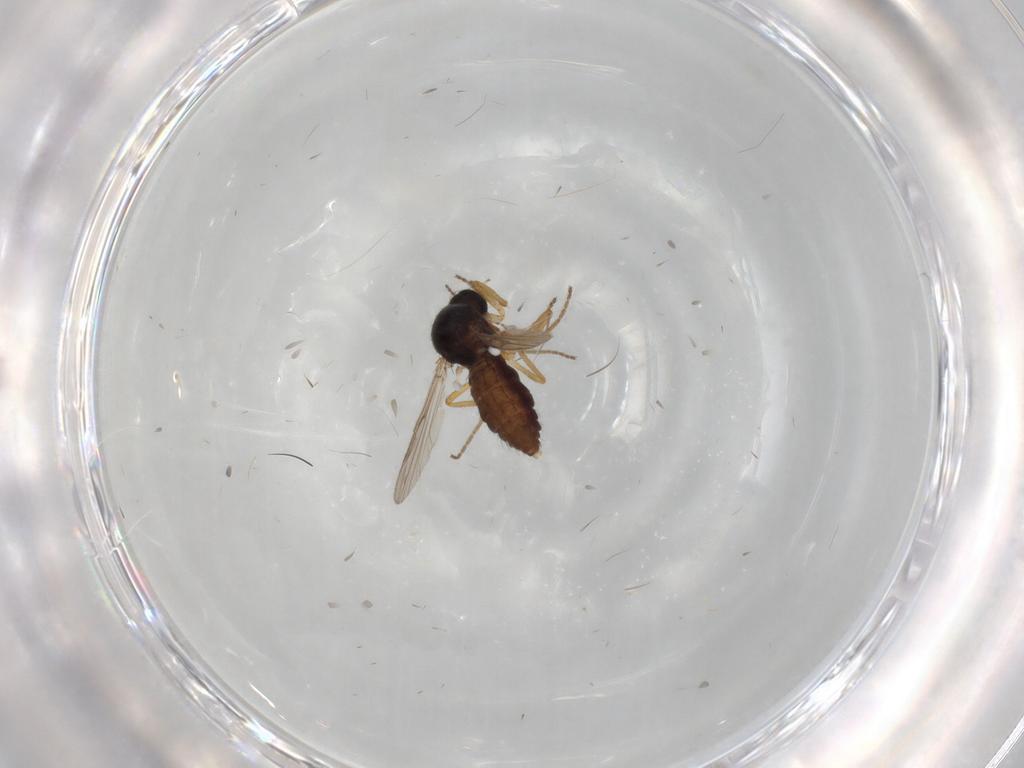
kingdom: Animalia
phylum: Arthropoda
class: Insecta
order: Diptera
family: Ceratopogonidae
